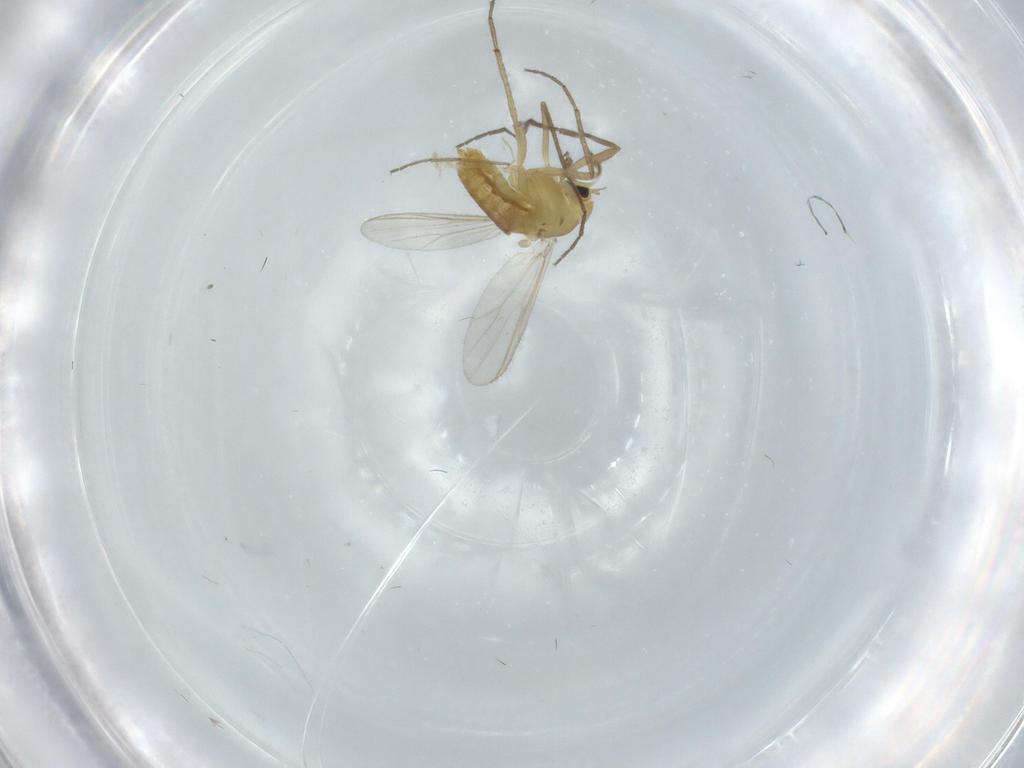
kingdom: Animalia
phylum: Arthropoda
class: Insecta
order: Diptera
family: Chironomidae
